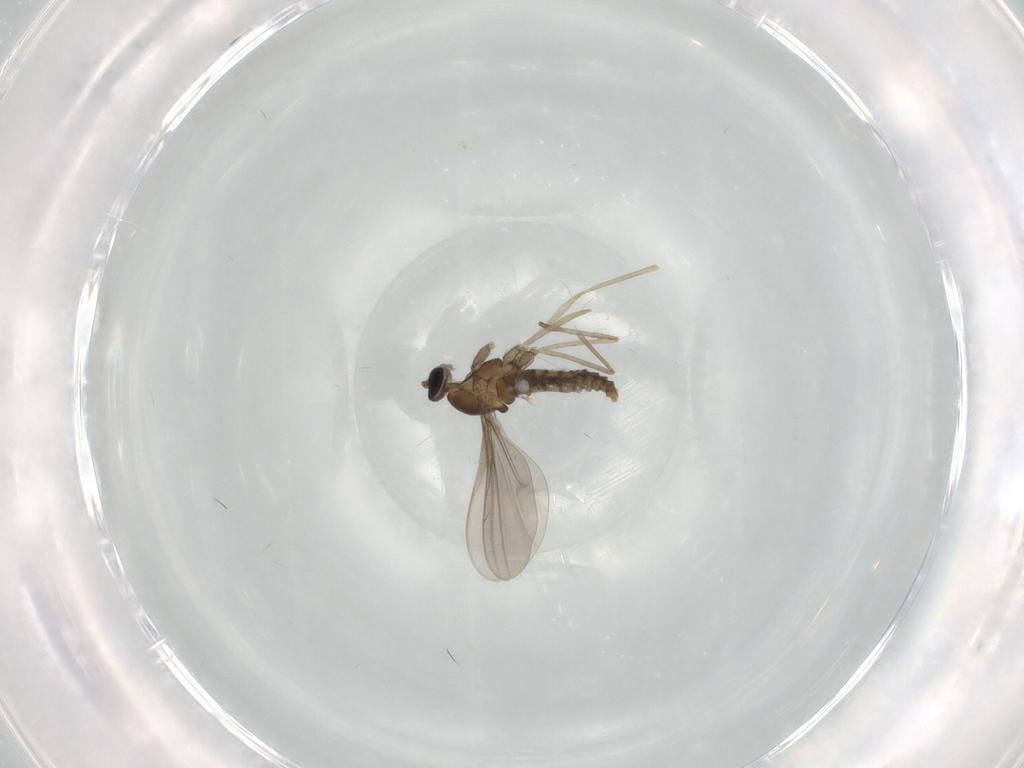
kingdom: Animalia
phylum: Arthropoda
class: Insecta
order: Diptera
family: Cecidomyiidae
